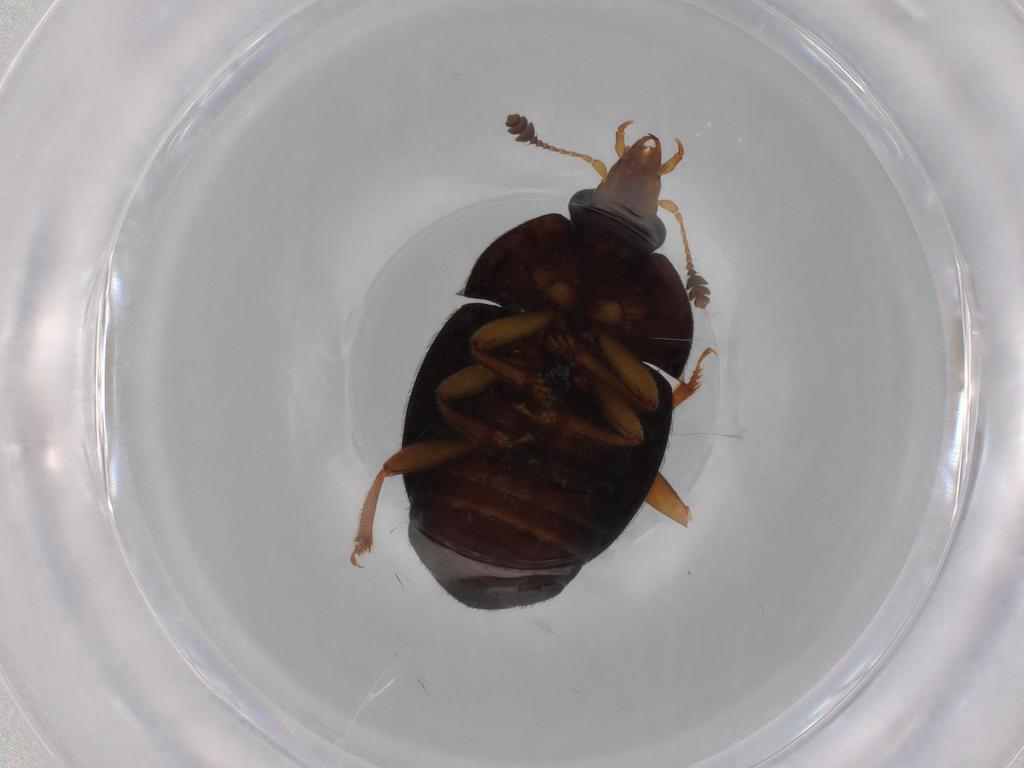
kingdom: Animalia
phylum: Arthropoda
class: Insecta
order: Coleoptera
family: Scarabaeidae
